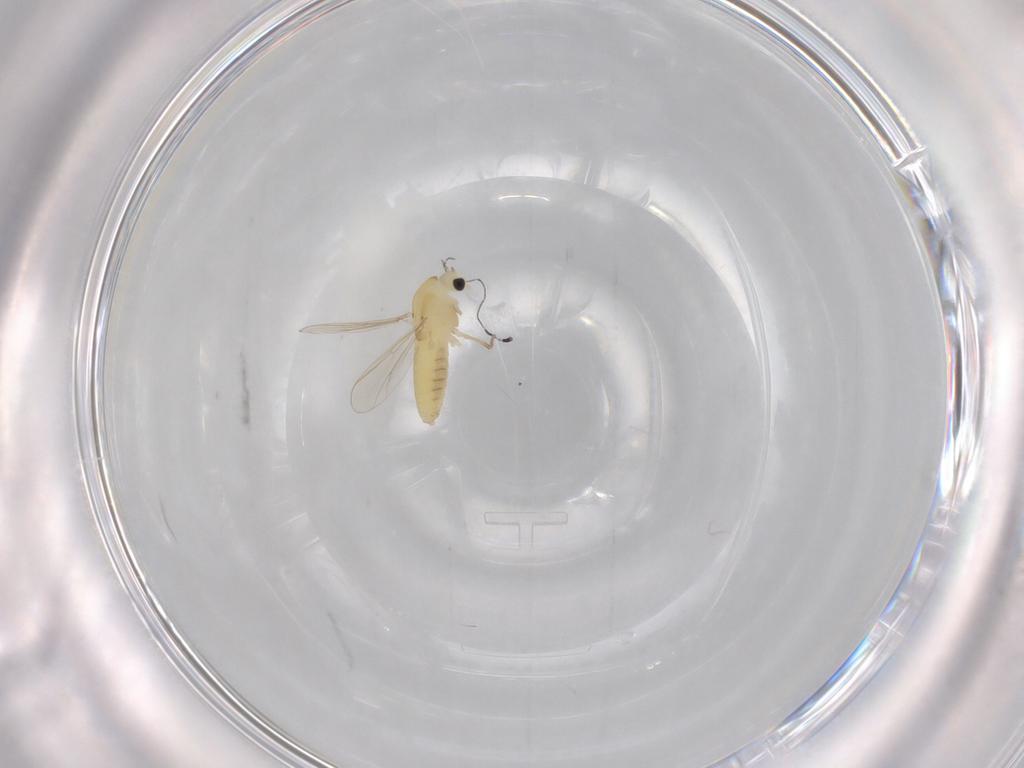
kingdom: Animalia
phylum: Arthropoda
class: Insecta
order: Diptera
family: Chironomidae
